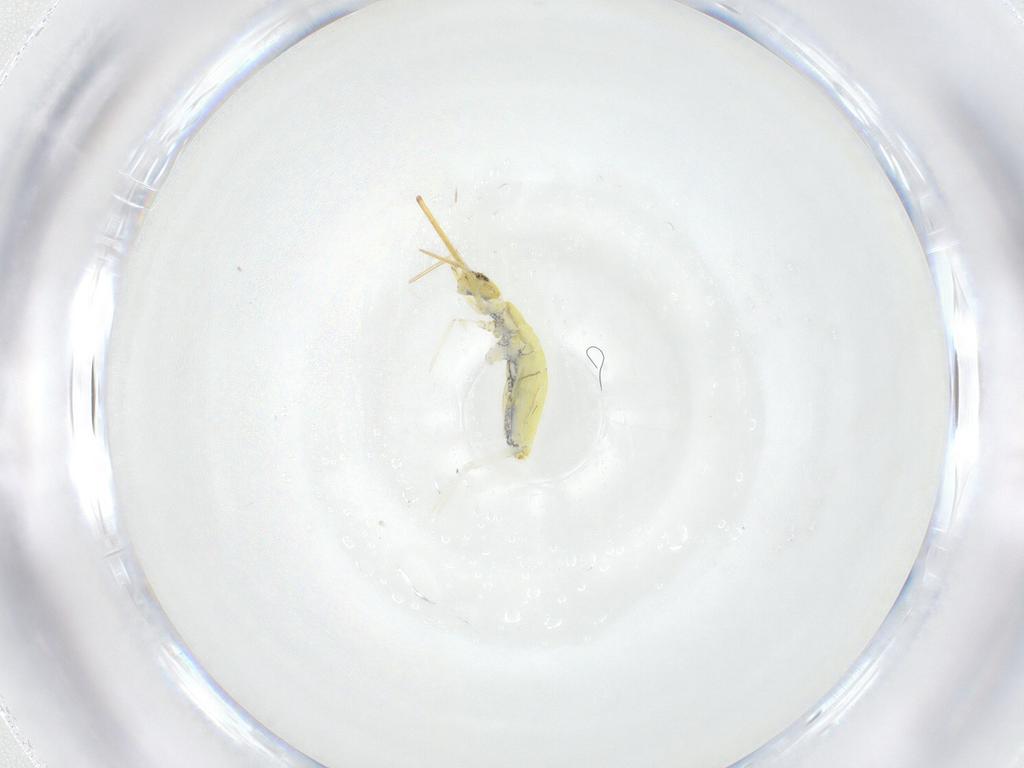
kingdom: Animalia
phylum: Arthropoda
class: Collembola
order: Entomobryomorpha
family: Paronellidae
